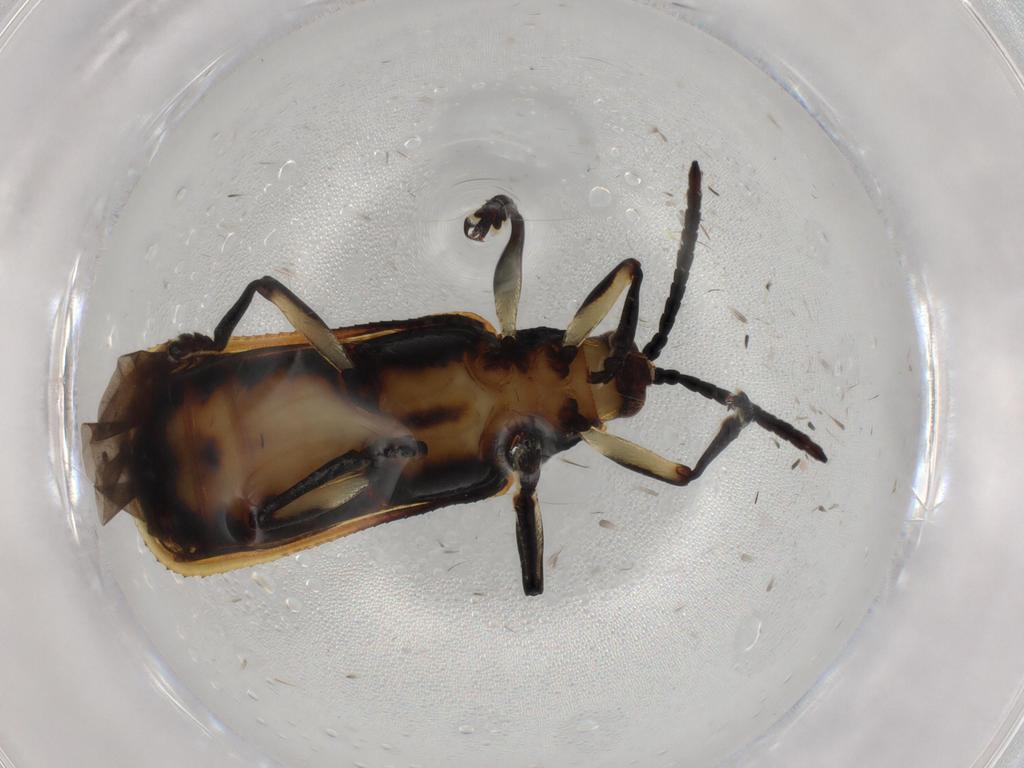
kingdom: Animalia
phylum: Arthropoda
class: Insecta
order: Coleoptera
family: Chrysomelidae
